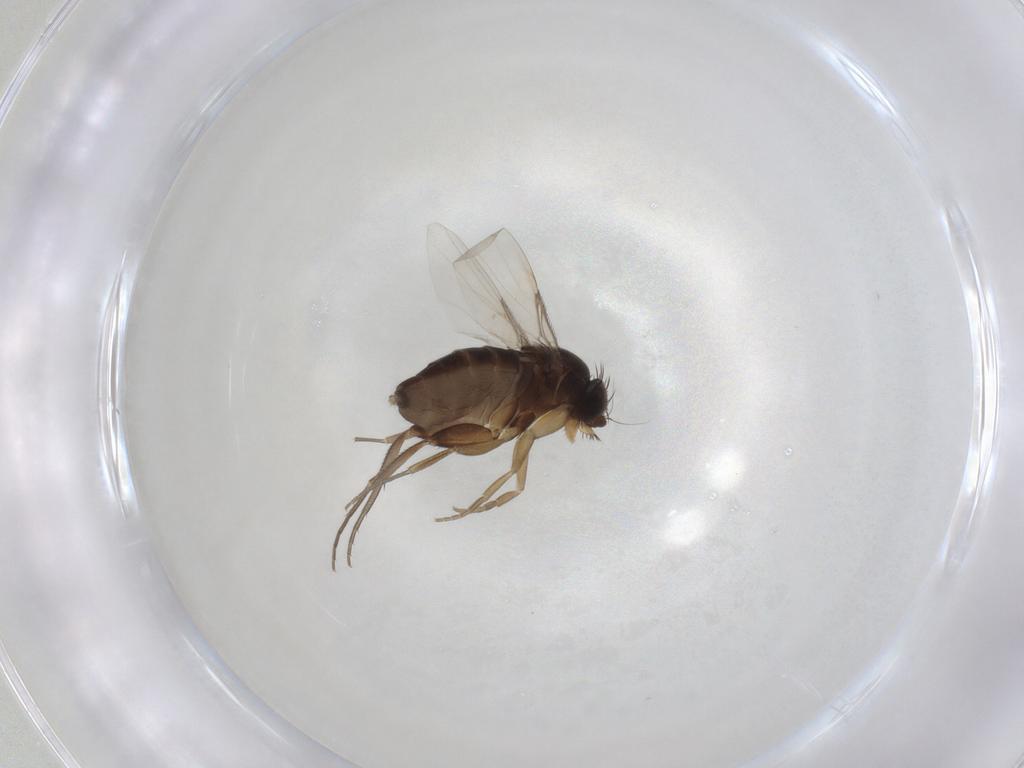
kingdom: Animalia
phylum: Arthropoda
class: Insecta
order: Diptera
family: Phoridae
